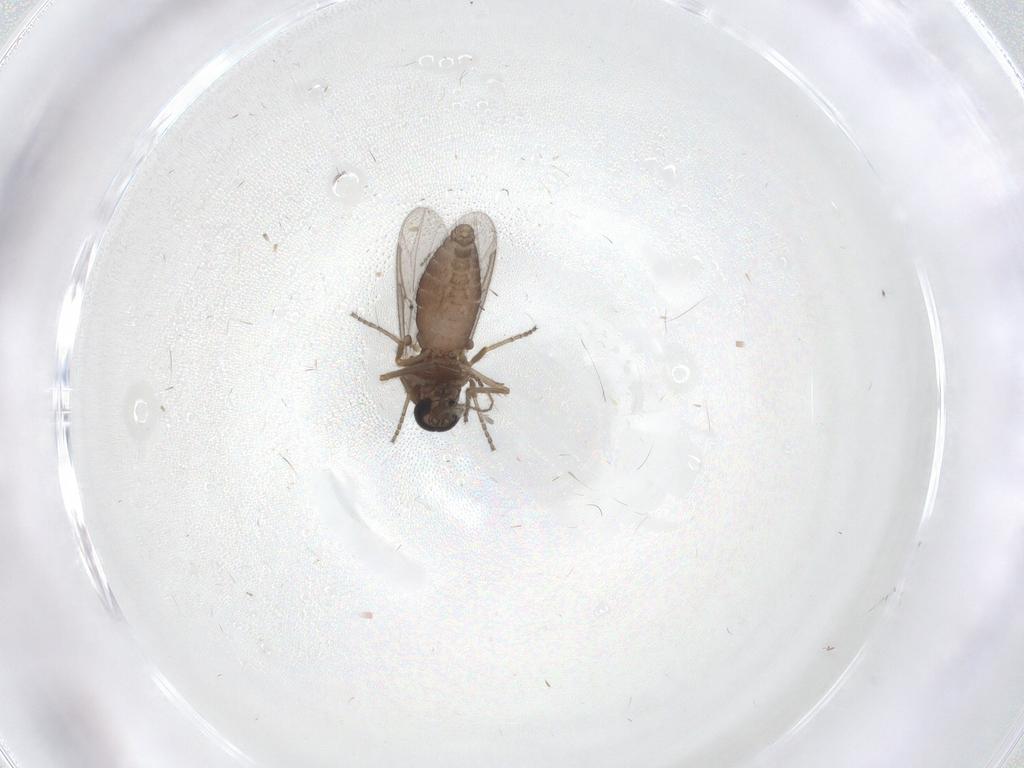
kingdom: Animalia
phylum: Arthropoda
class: Insecta
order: Diptera
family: Ceratopogonidae
